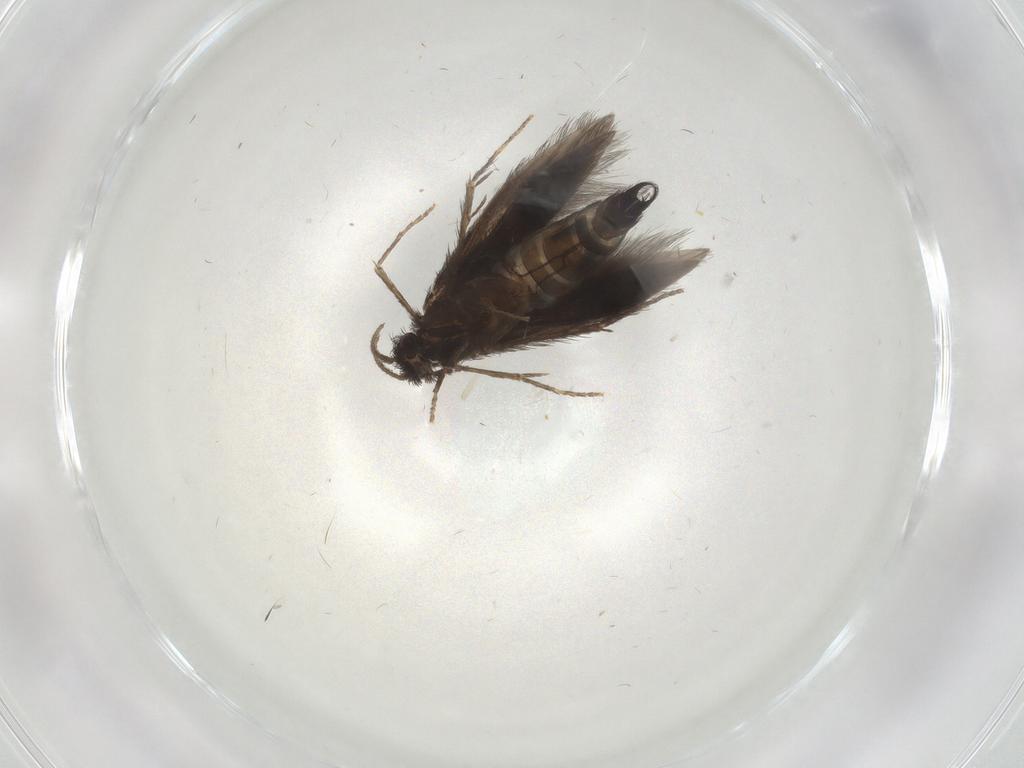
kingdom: Animalia
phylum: Arthropoda
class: Insecta
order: Trichoptera
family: Hydroptilidae
